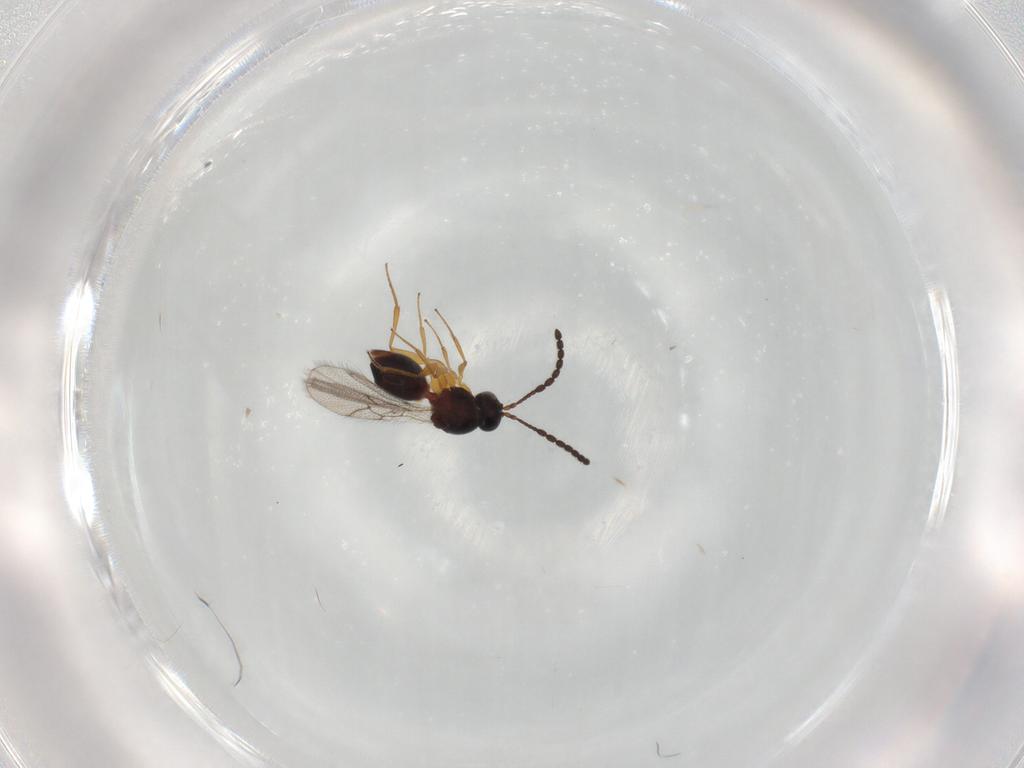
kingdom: Animalia
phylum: Arthropoda
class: Insecta
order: Hymenoptera
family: Figitidae
